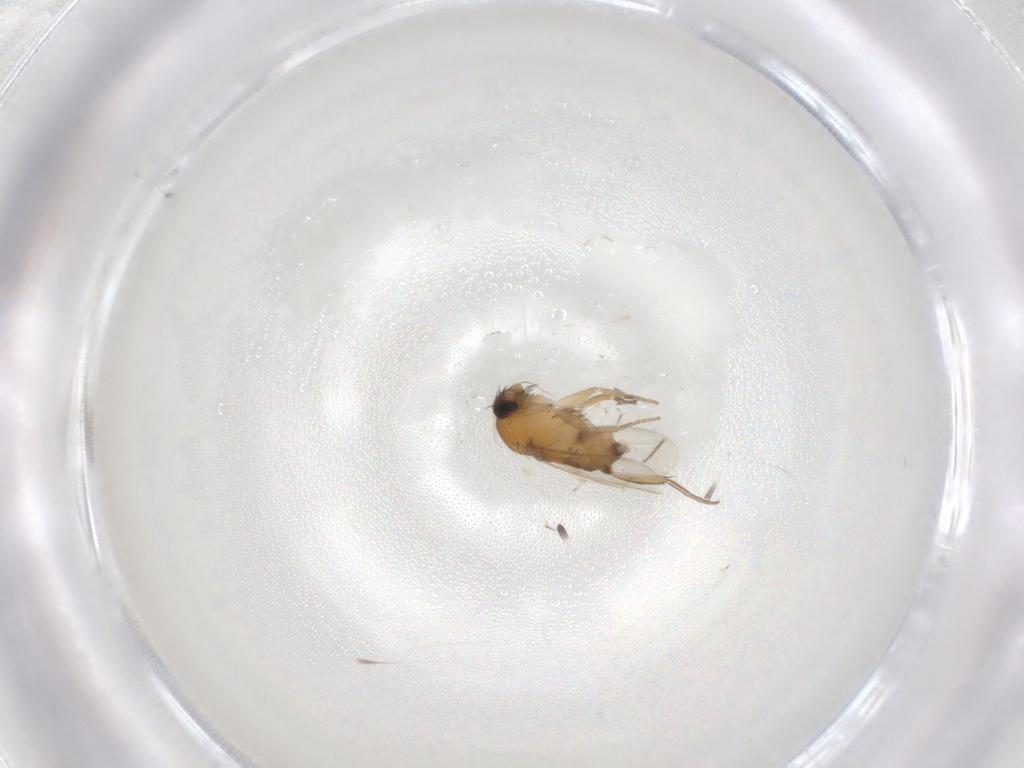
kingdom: Animalia
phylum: Arthropoda
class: Insecta
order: Diptera
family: Phoridae
